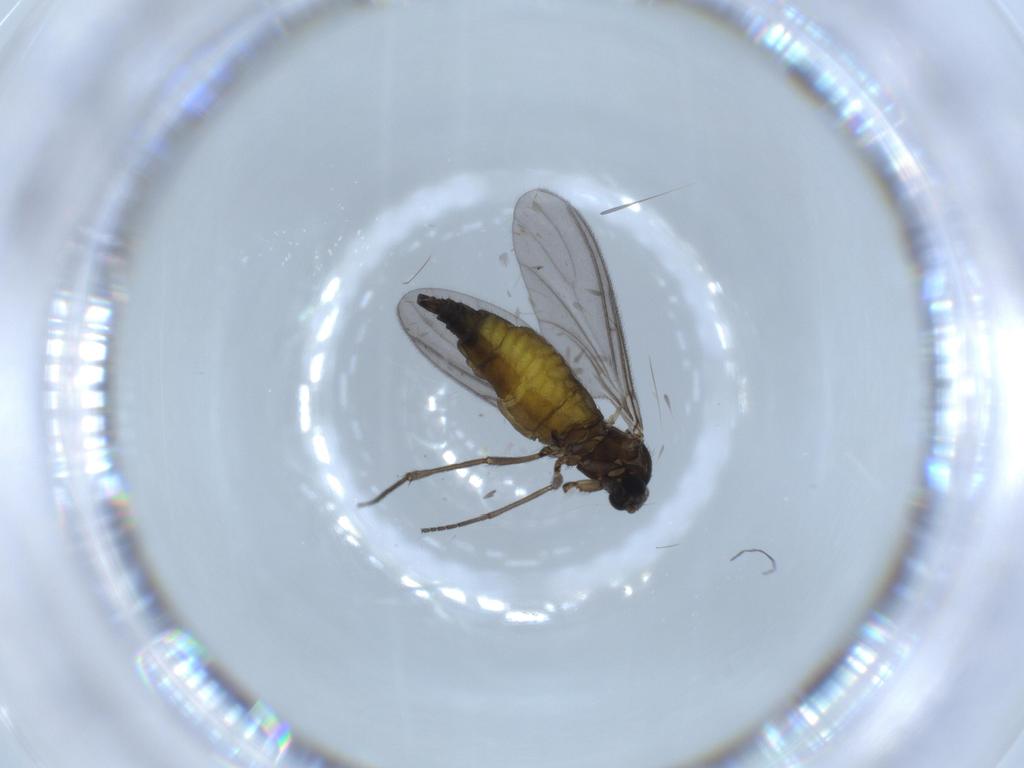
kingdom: Animalia
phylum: Arthropoda
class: Insecta
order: Diptera
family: Sciaridae
